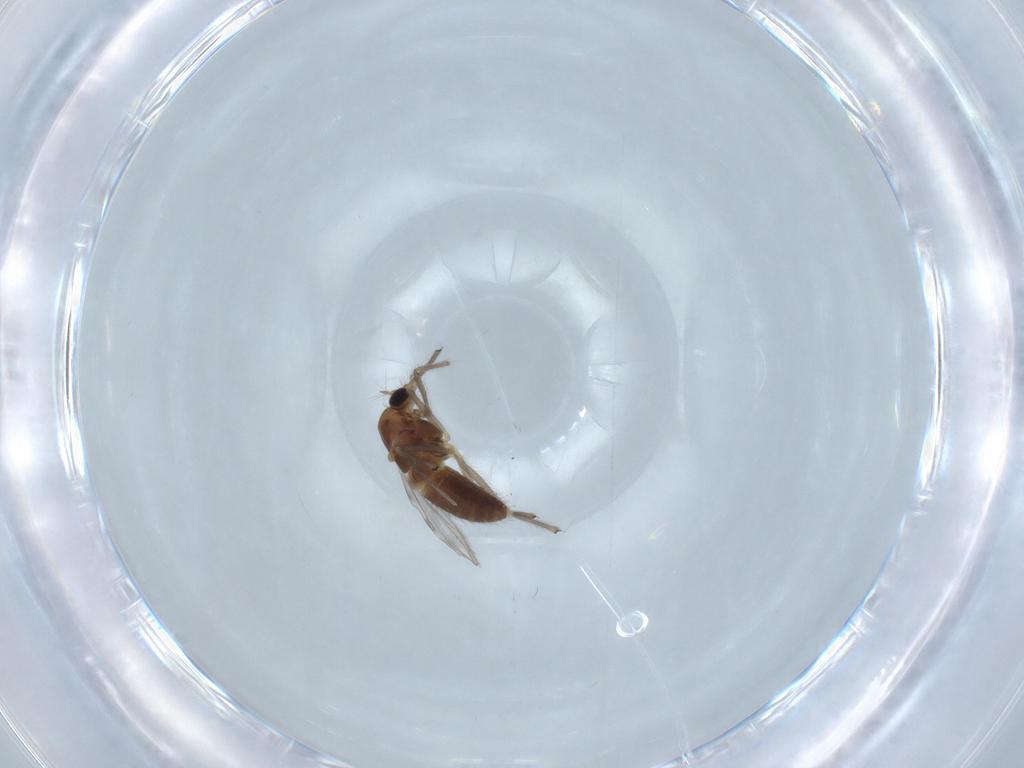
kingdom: Animalia
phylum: Arthropoda
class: Insecta
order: Diptera
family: Chironomidae
